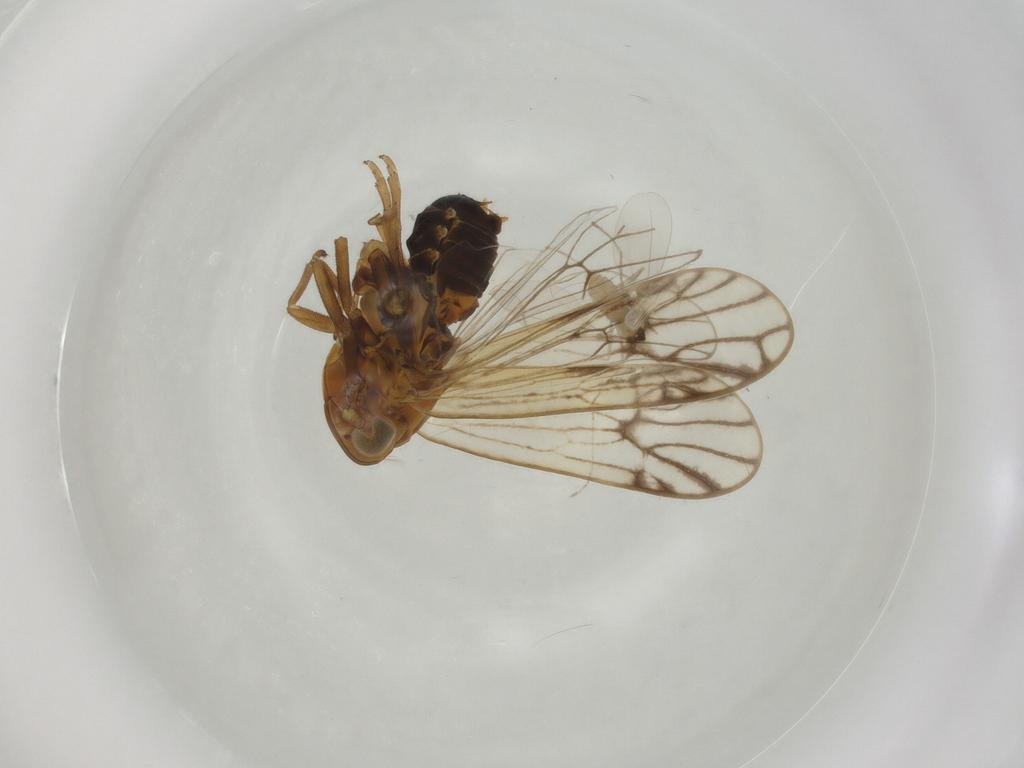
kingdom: Animalia
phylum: Arthropoda
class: Insecta
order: Hemiptera
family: Delphacidae
